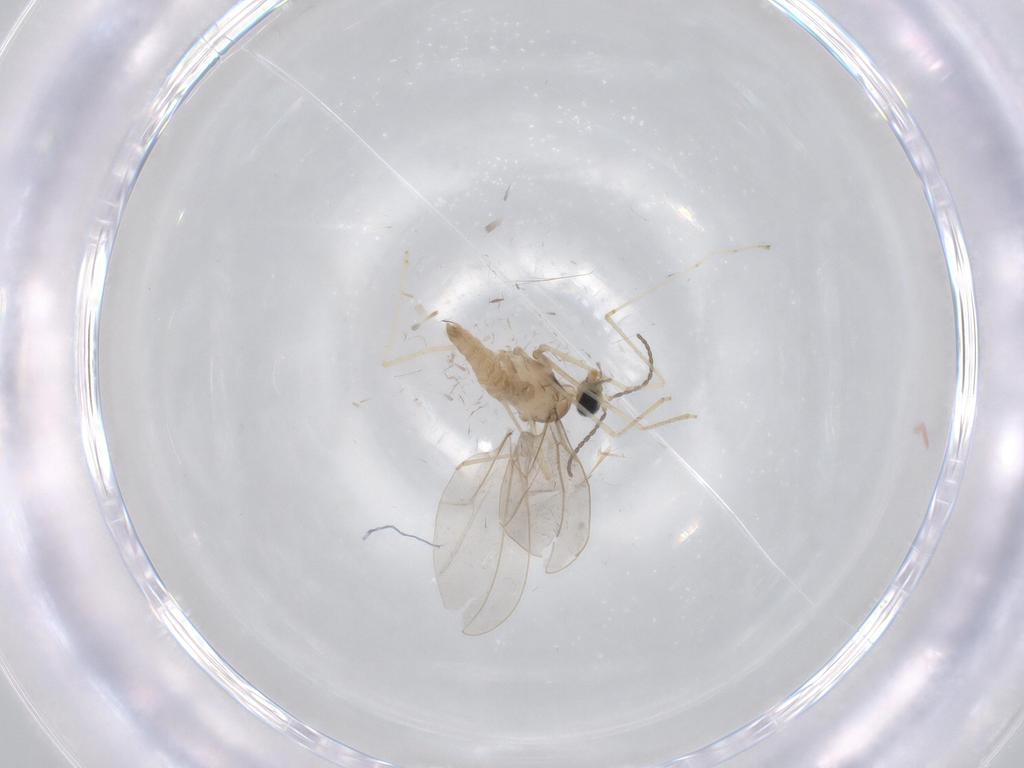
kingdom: Animalia
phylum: Arthropoda
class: Insecta
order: Diptera
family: Cecidomyiidae
